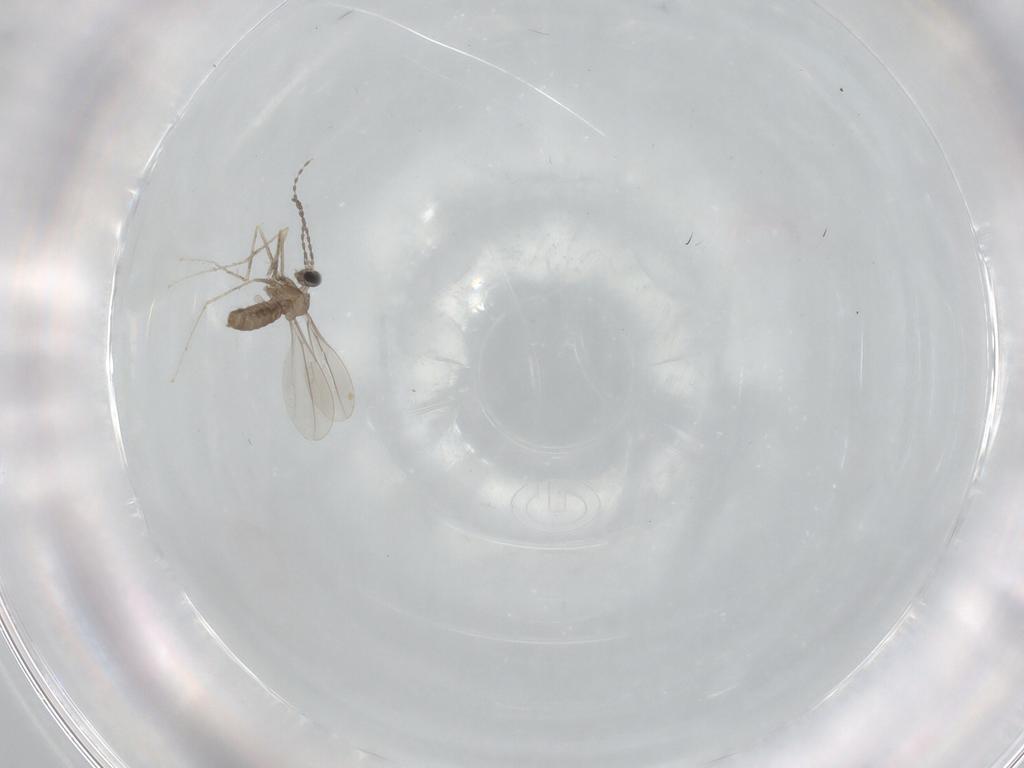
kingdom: Animalia
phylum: Arthropoda
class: Insecta
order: Diptera
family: Cecidomyiidae
